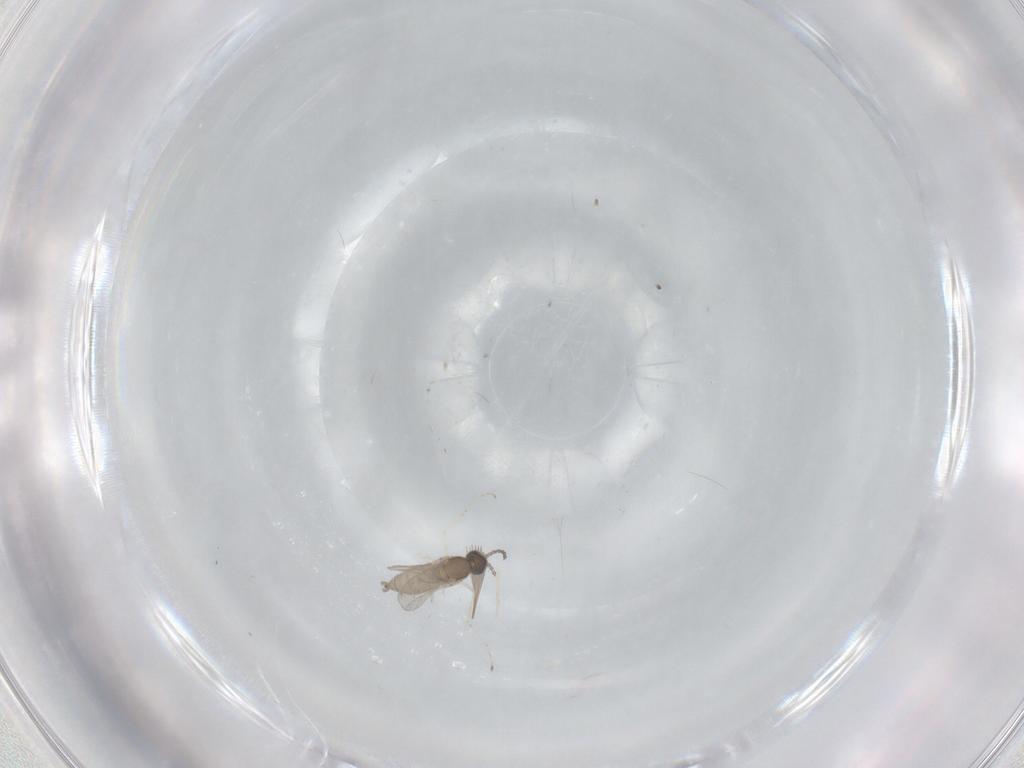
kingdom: Animalia
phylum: Arthropoda
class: Insecta
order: Diptera
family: Cecidomyiidae
